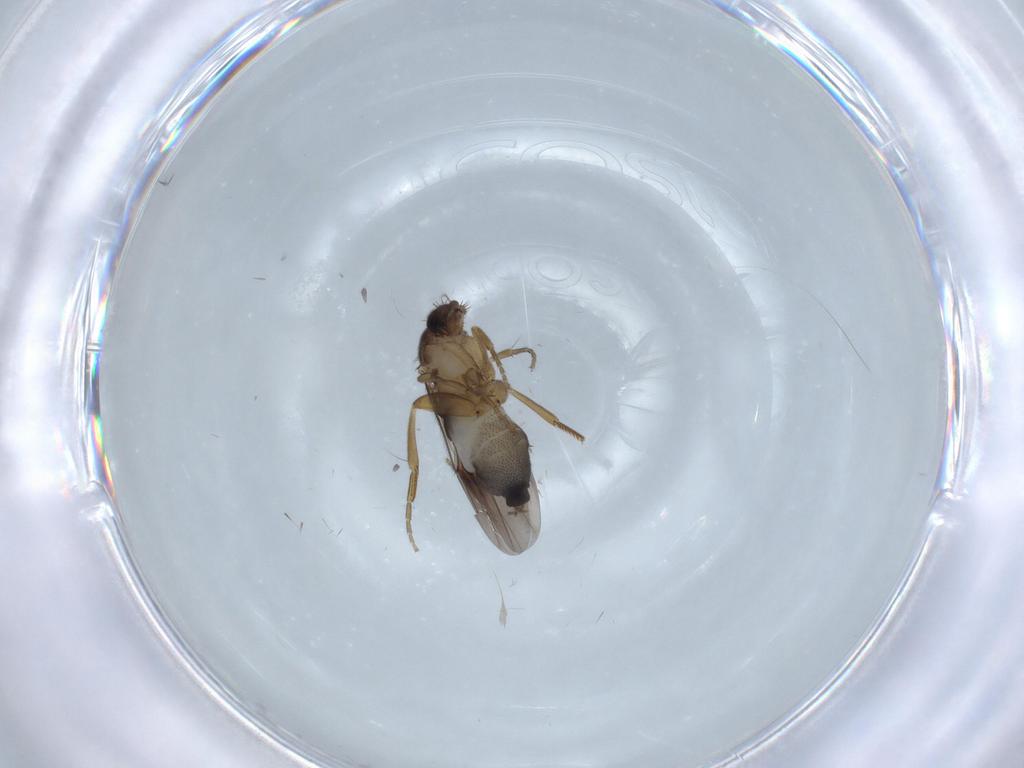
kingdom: Animalia
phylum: Arthropoda
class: Insecta
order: Diptera
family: Phoridae
